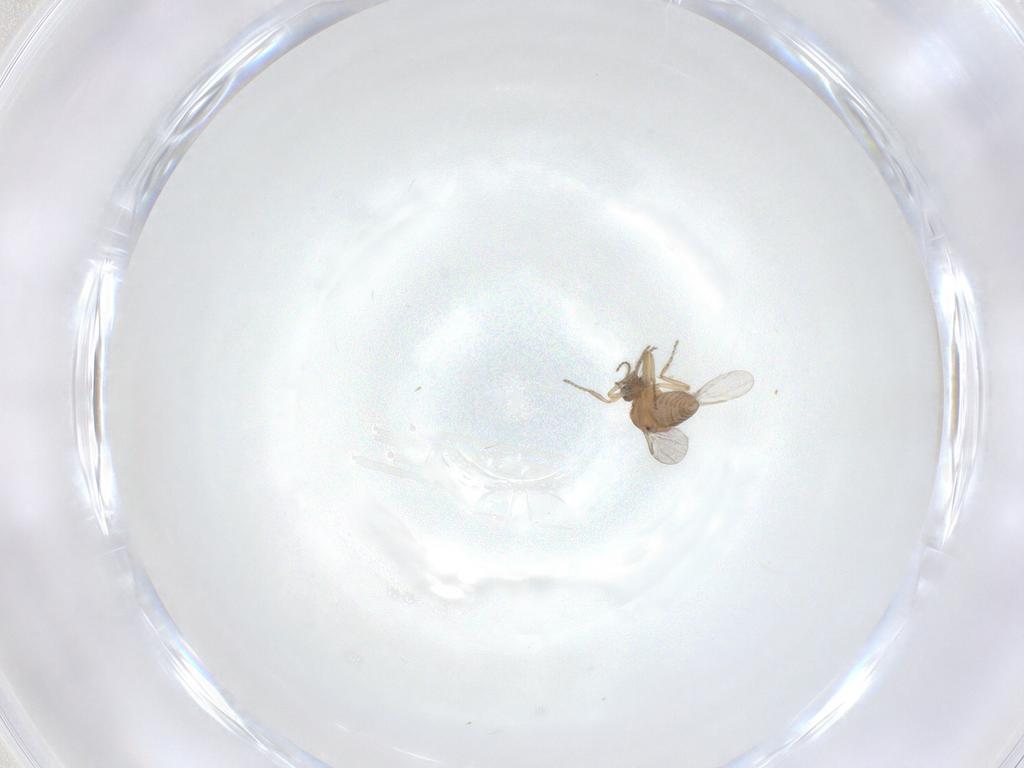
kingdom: Animalia
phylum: Arthropoda
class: Insecta
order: Diptera
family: Ceratopogonidae
